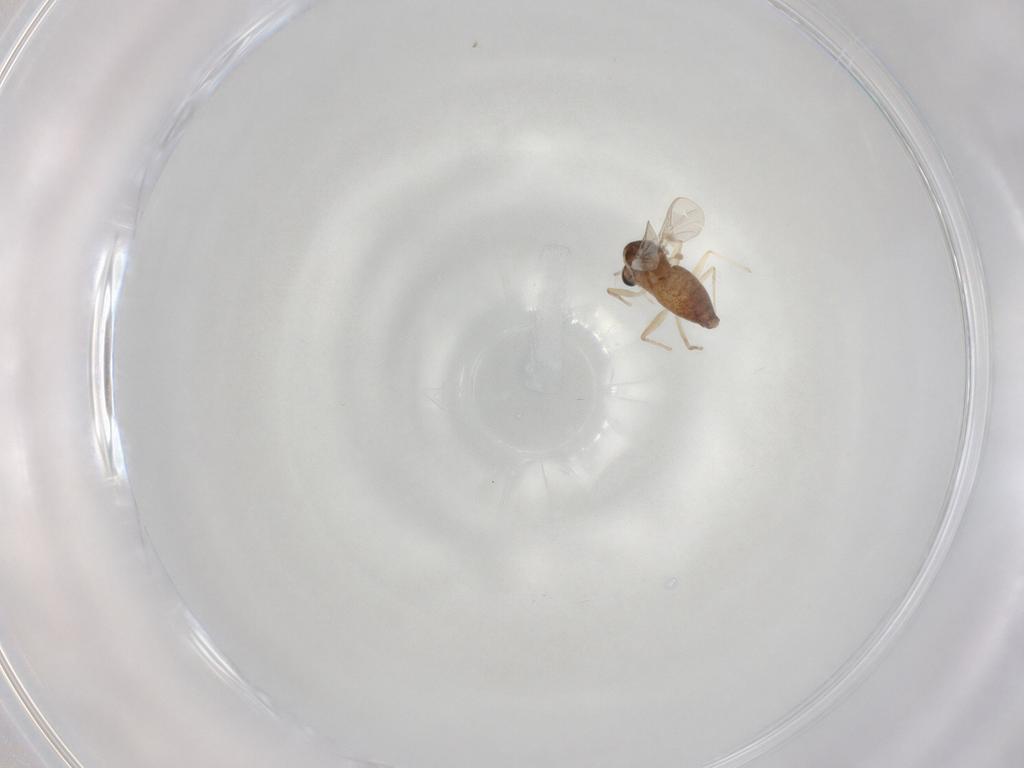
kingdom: Animalia
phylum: Arthropoda
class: Insecta
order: Diptera
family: Chironomidae
